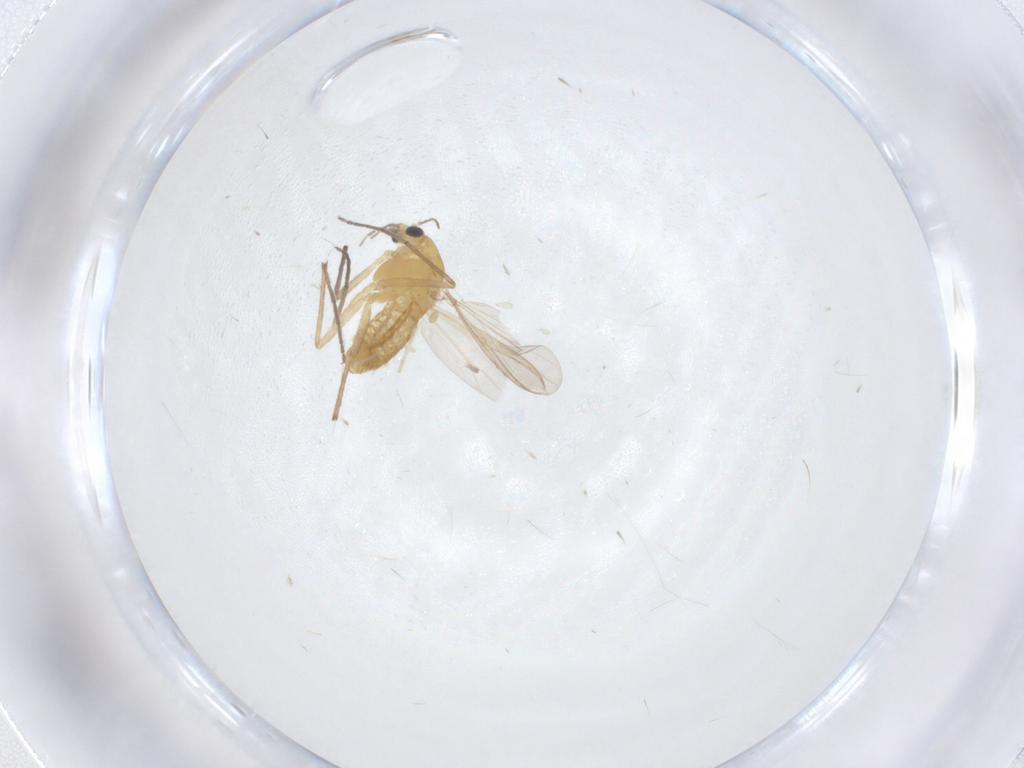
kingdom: Animalia
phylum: Arthropoda
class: Insecta
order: Diptera
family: Chironomidae
